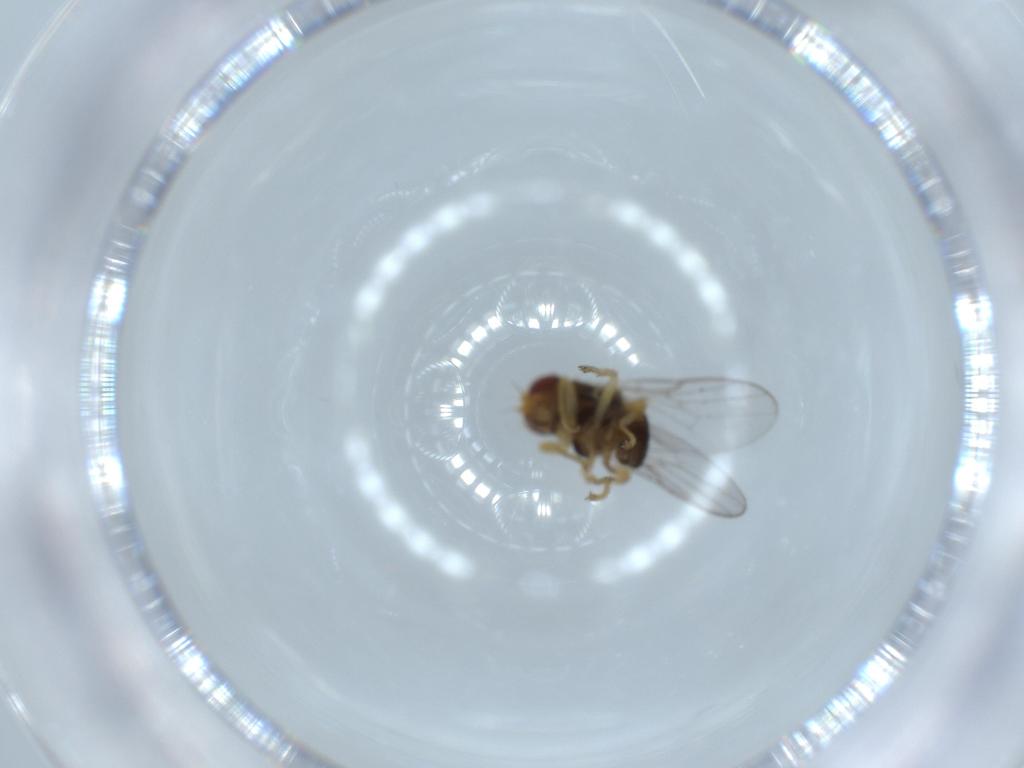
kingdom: Animalia
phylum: Arthropoda
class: Insecta
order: Diptera
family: Chloropidae
